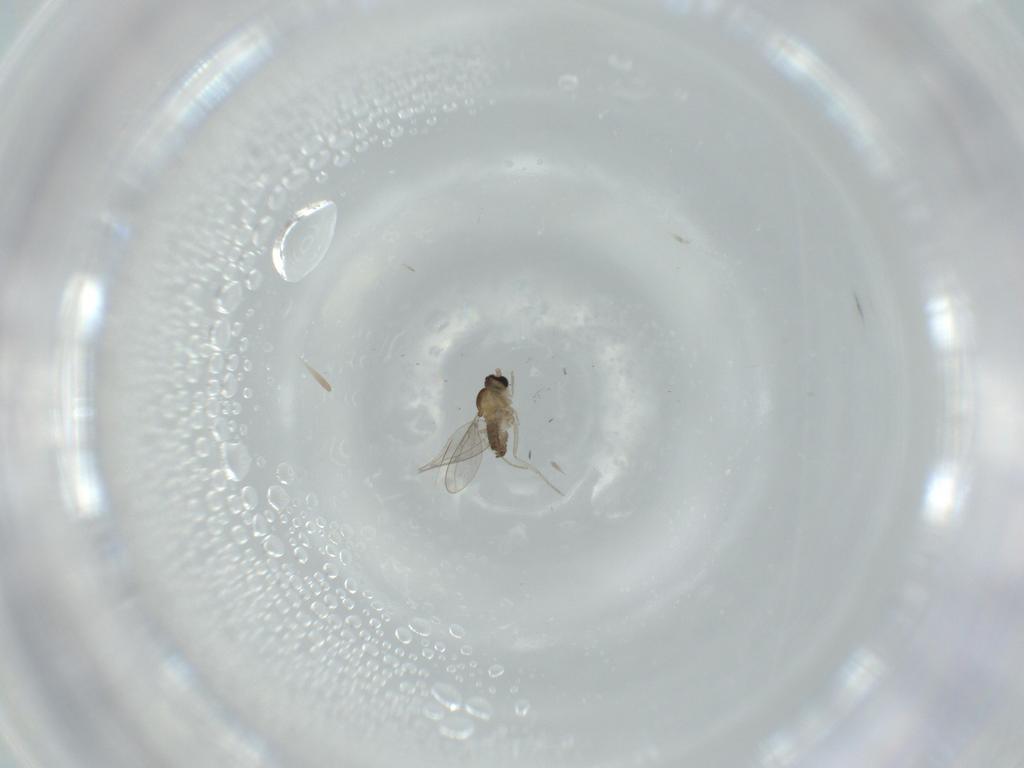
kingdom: Animalia
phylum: Arthropoda
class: Insecta
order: Diptera
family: Cecidomyiidae
